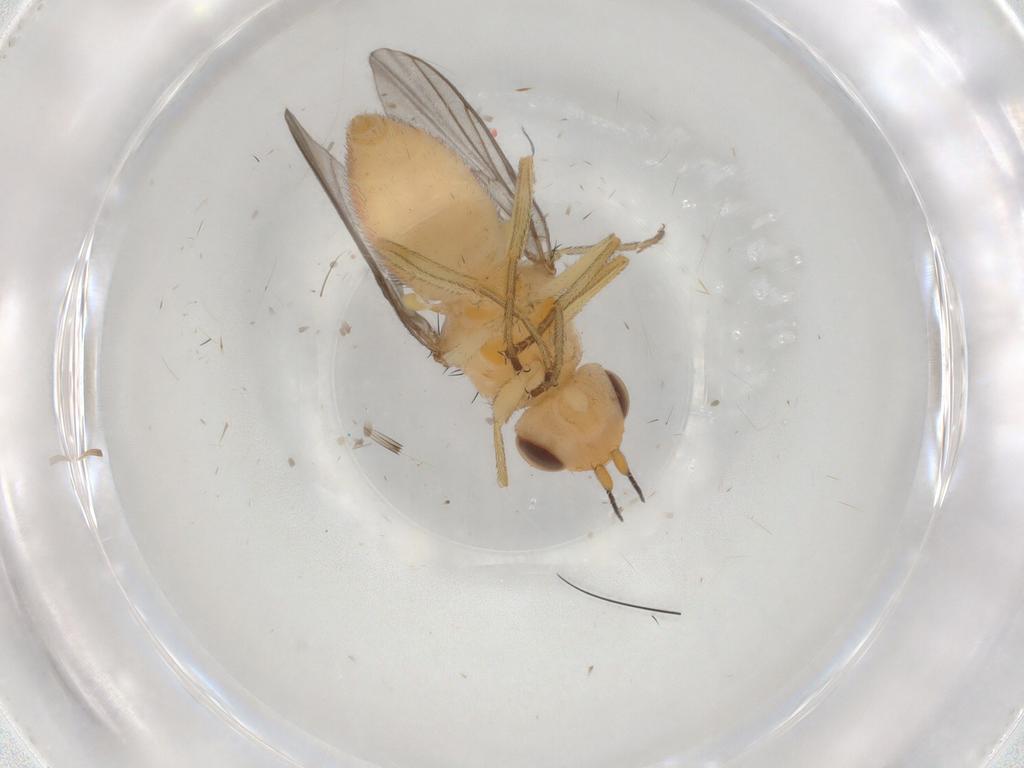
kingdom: Animalia
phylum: Arthropoda
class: Insecta
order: Diptera
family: Chloropidae
